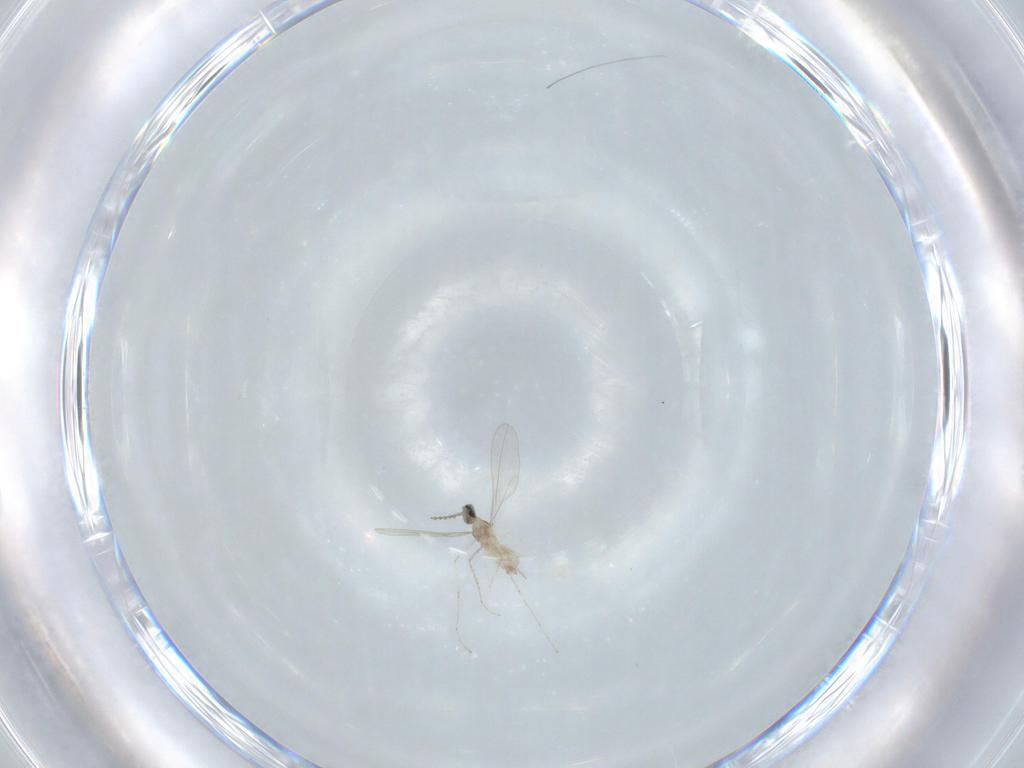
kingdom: Animalia
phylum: Arthropoda
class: Insecta
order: Diptera
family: Cecidomyiidae
